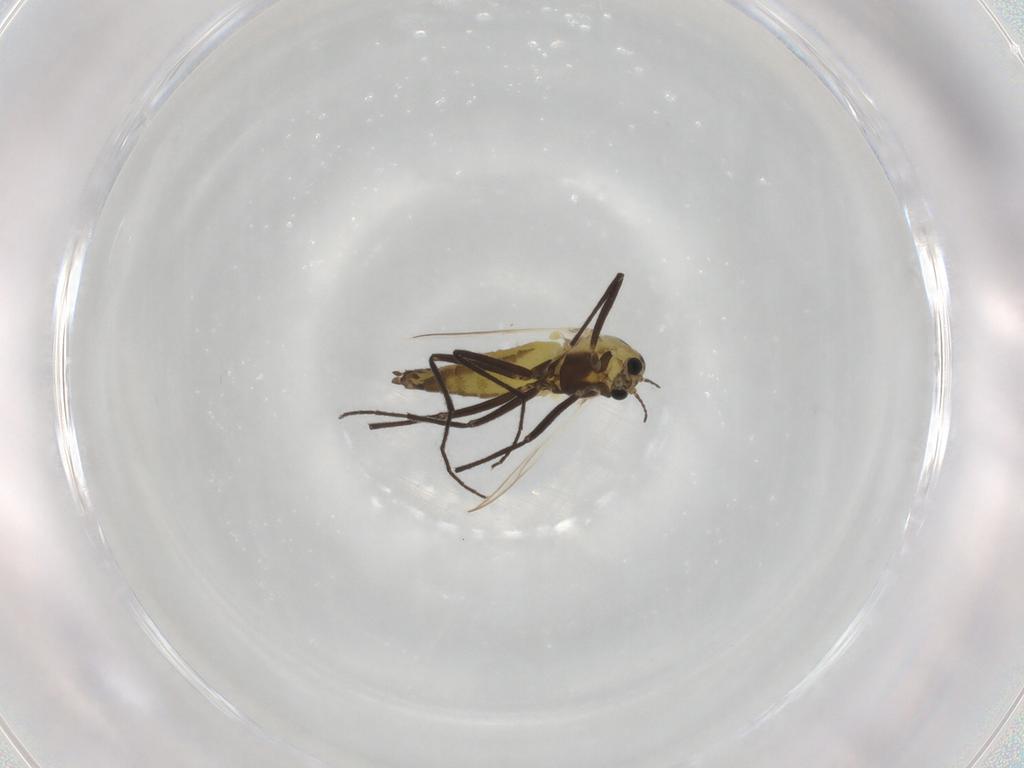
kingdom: Animalia
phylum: Arthropoda
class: Insecta
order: Diptera
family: Chironomidae
